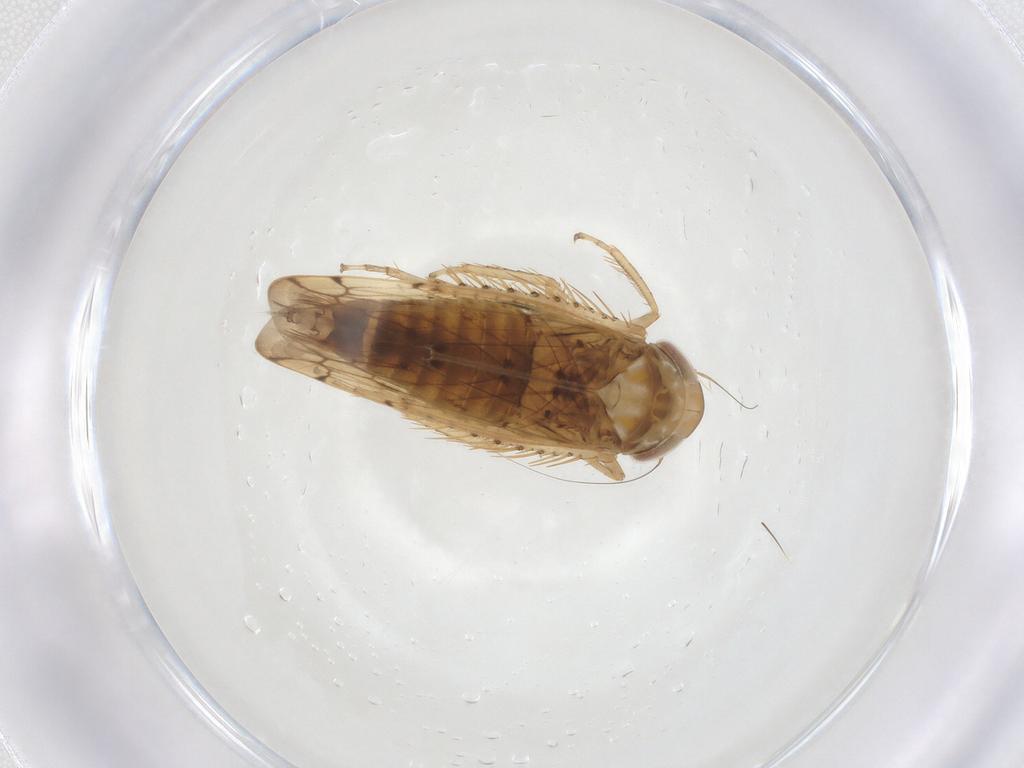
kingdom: Animalia
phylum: Arthropoda
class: Insecta
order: Hemiptera
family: Cicadellidae
